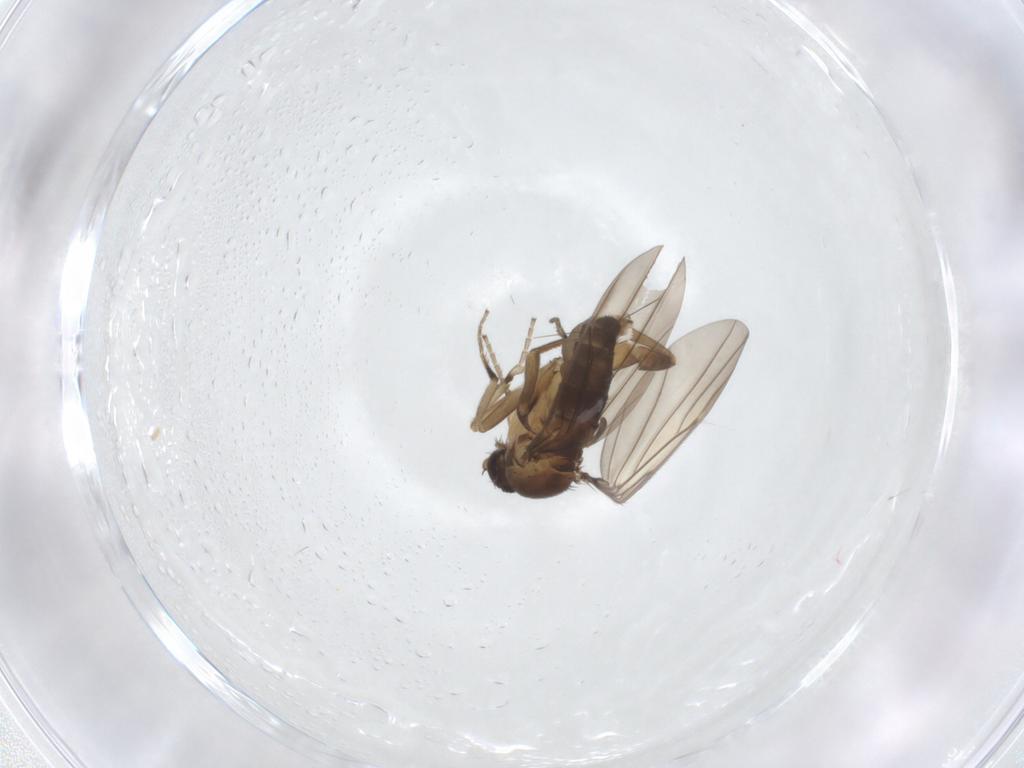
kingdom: Animalia
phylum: Arthropoda
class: Insecta
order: Diptera
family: Phoridae
